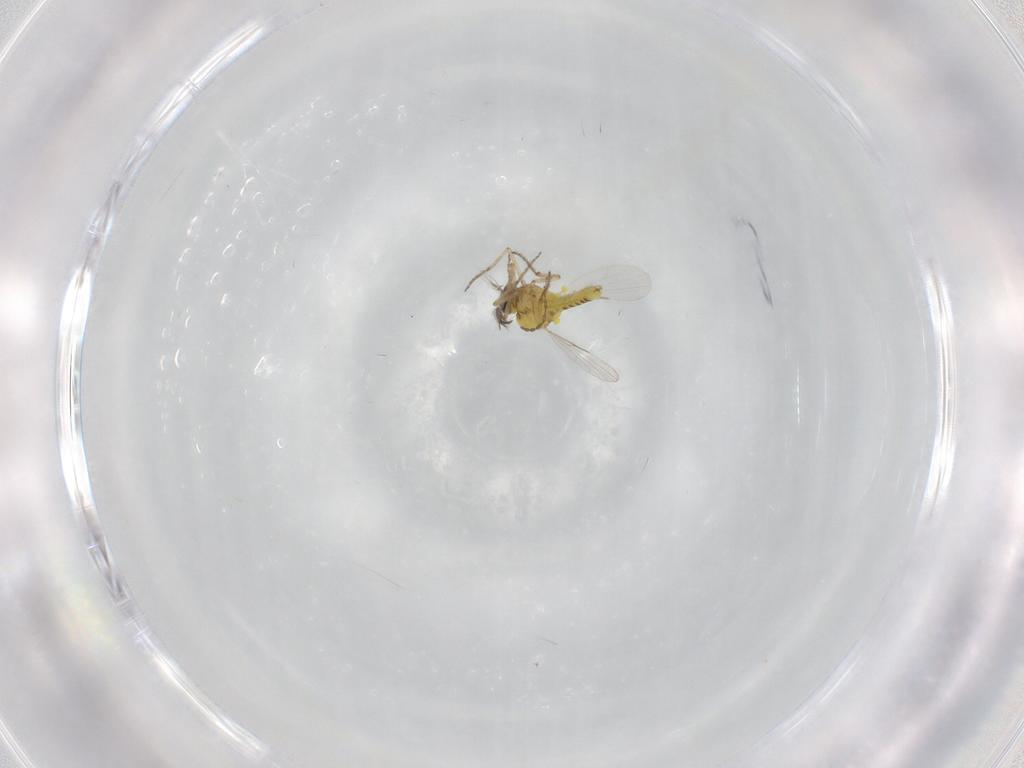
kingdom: Animalia
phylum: Arthropoda
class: Insecta
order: Diptera
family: Ceratopogonidae
